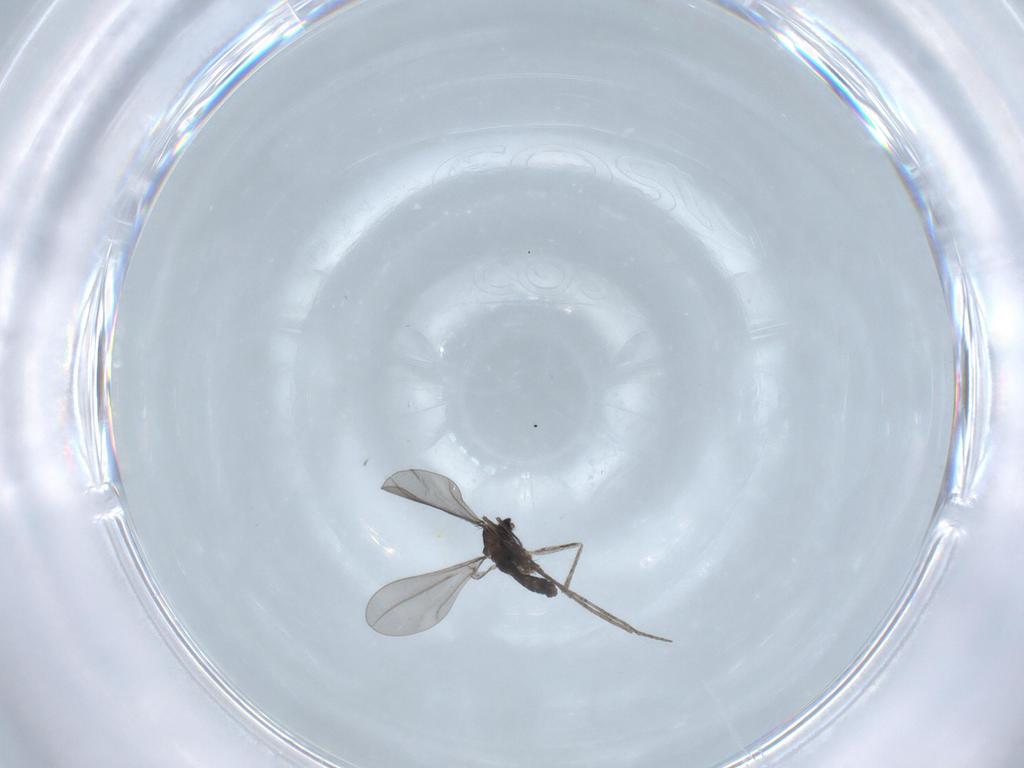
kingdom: Animalia
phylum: Arthropoda
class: Insecta
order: Diptera
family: Cecidomyiidae
